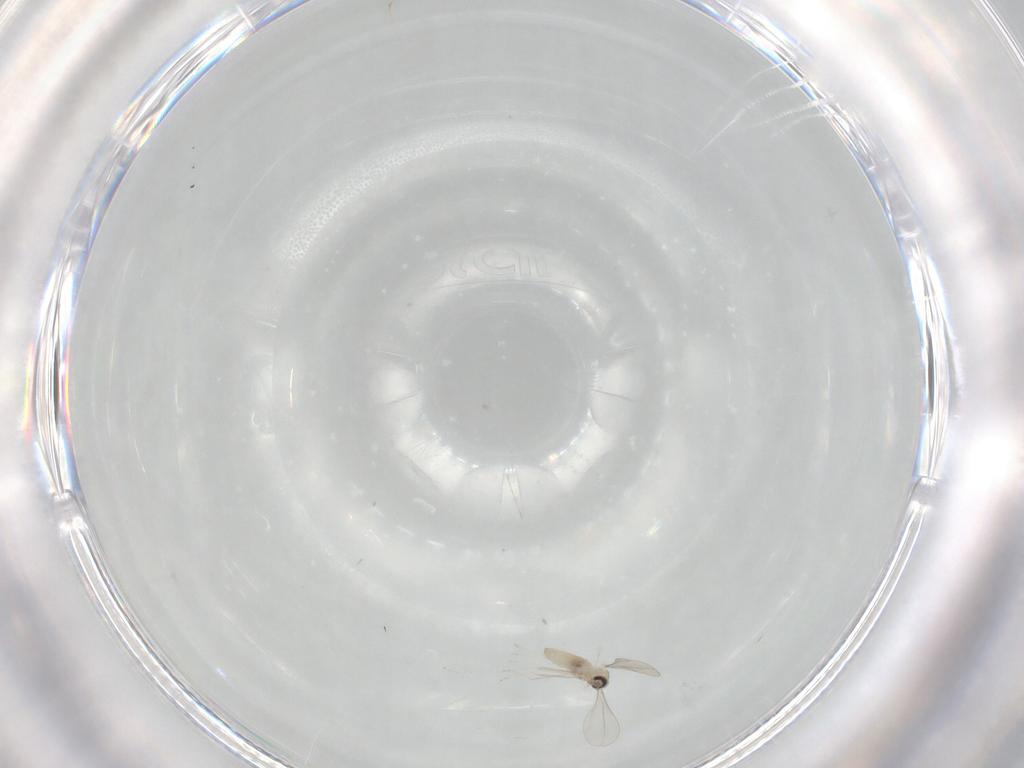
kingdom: Animalia
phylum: Arthropoda
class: Insecta
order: Diptera
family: Cecidomyiidae
